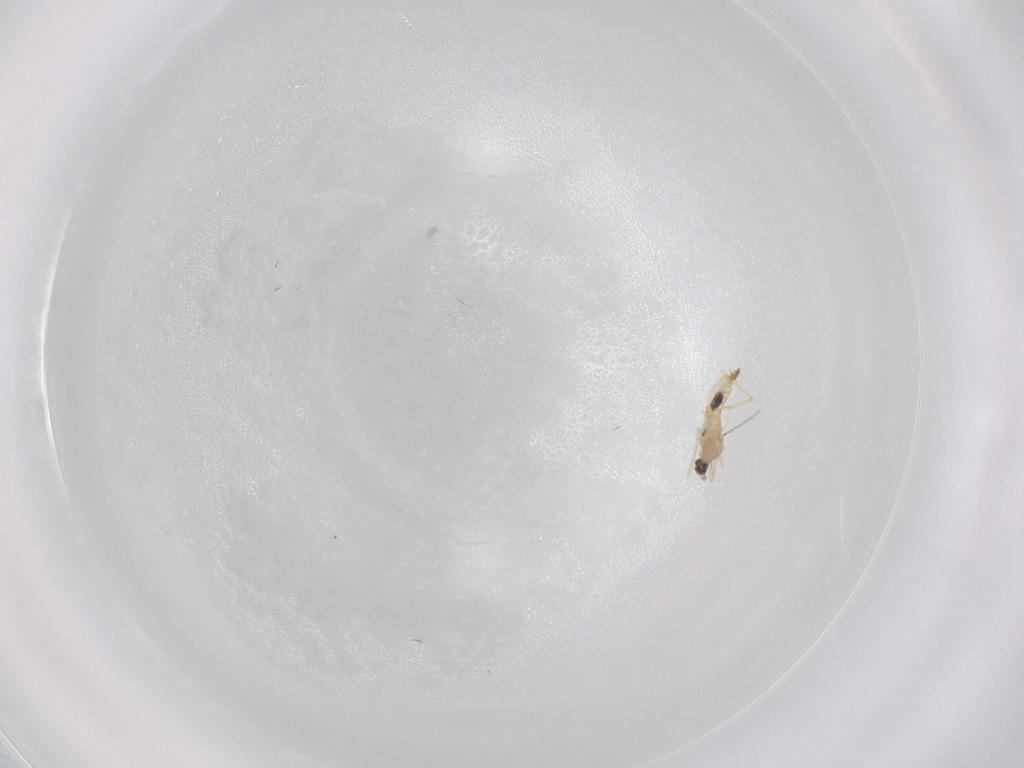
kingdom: Animalia
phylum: Arthropoda
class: Insecta
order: Diptera
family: Cecidomyiidae
